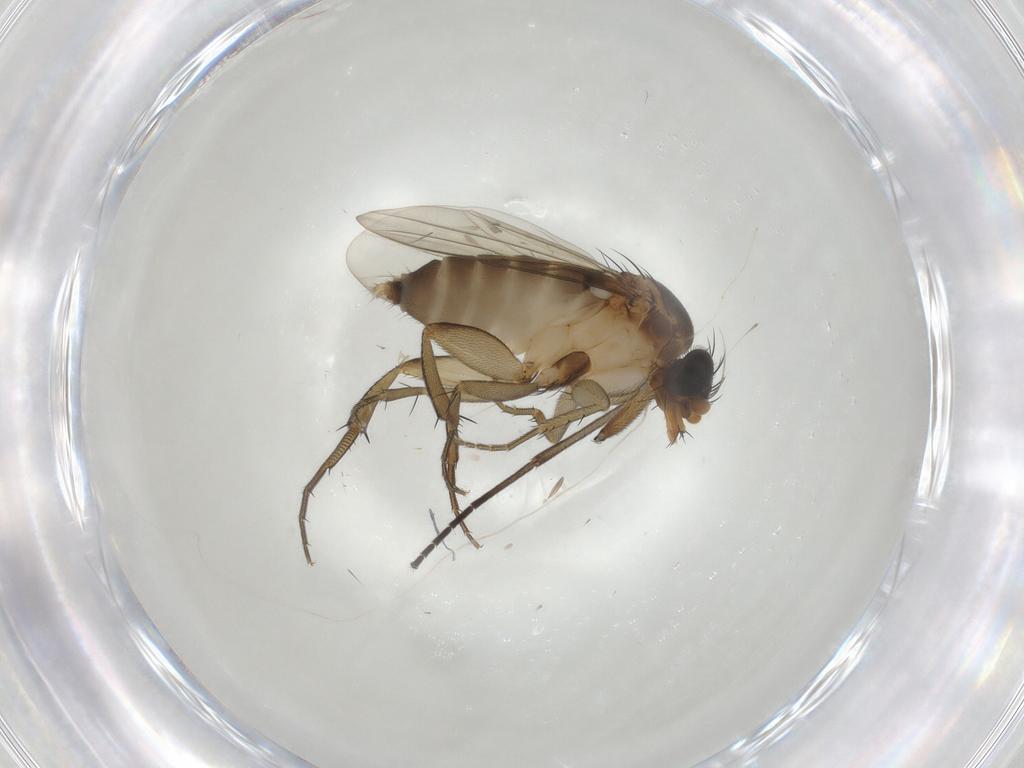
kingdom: Animalia
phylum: Arthropoda
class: Insecta
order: Diptera
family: Sciaridae
